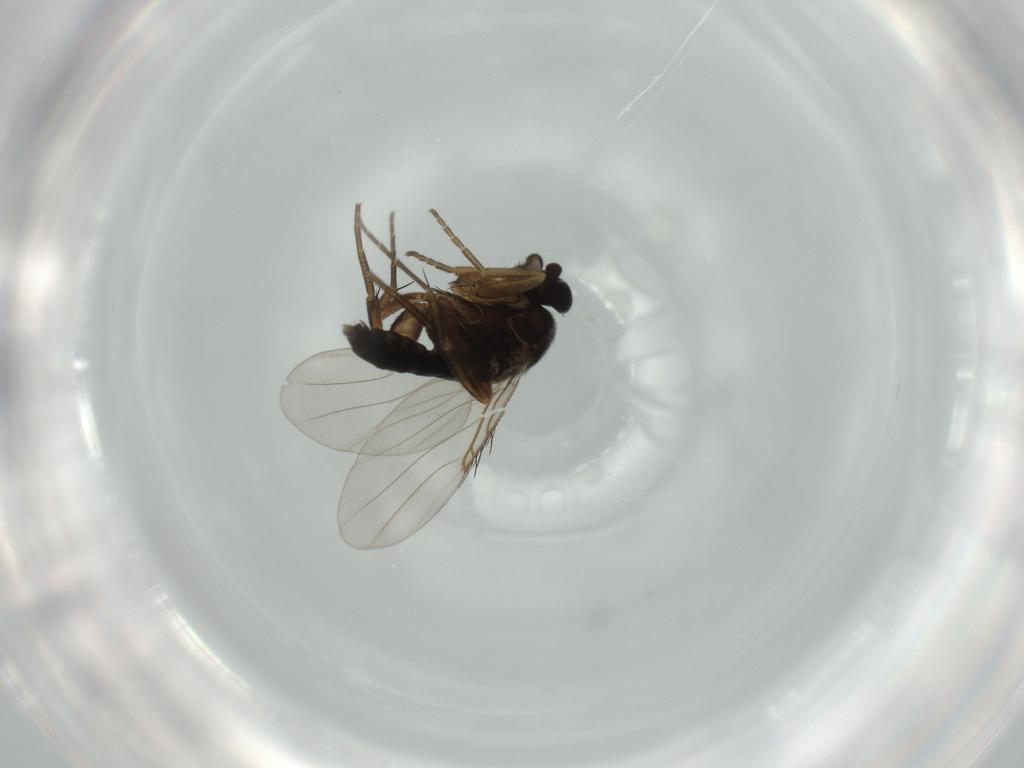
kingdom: Animalia
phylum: Arthropoda
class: Insecta
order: Diptera
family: Phoridae
